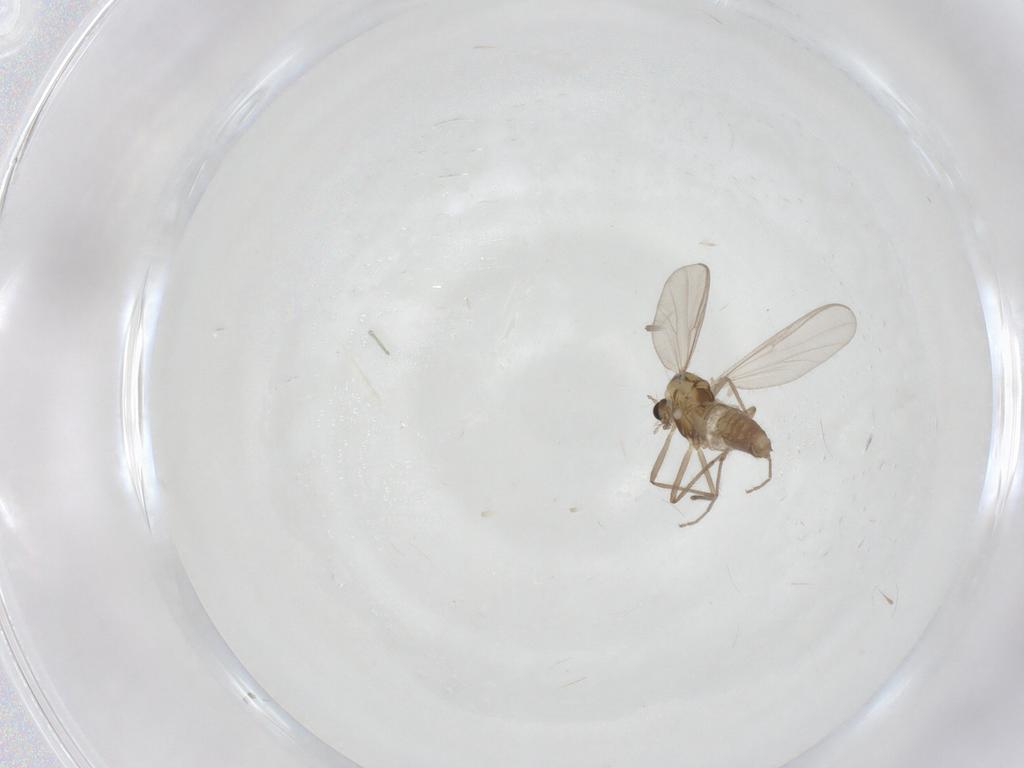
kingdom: Animalia
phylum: Arthropoda
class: Insecta
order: Diptera
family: Chironomidae
